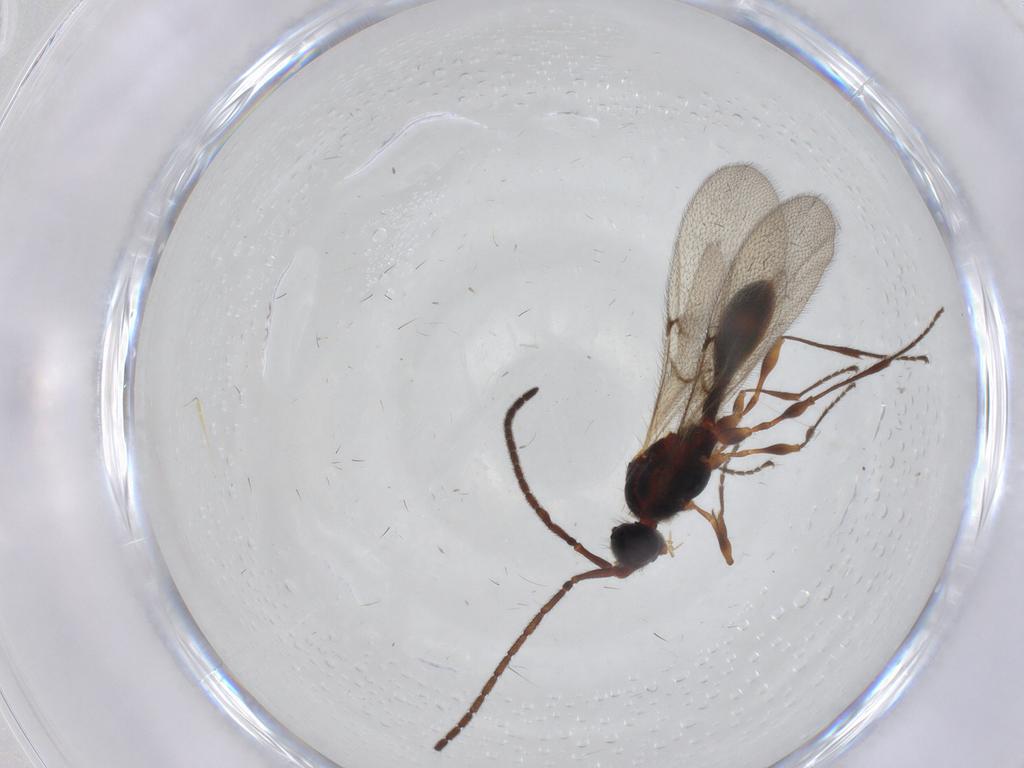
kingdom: Animalia
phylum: Arthropoda
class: Insecta
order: Hymenoptera
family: Diapriidae
